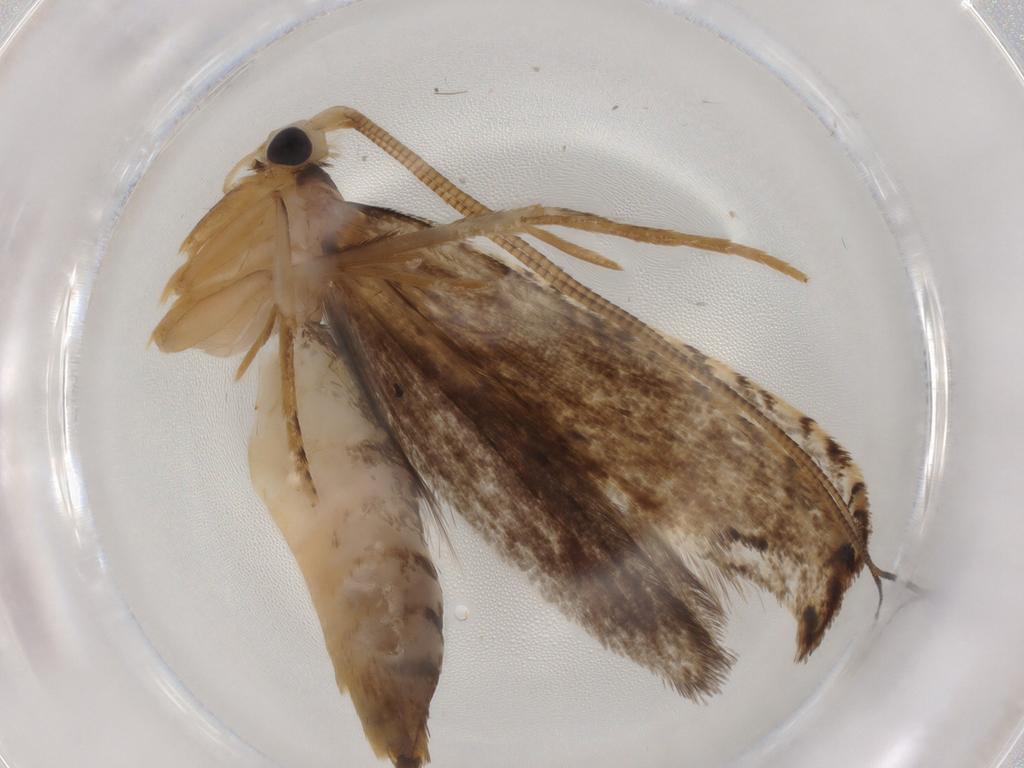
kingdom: Animalia
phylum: Arthropoda
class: Insecta
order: Lepidoptera
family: Nepticulidae
